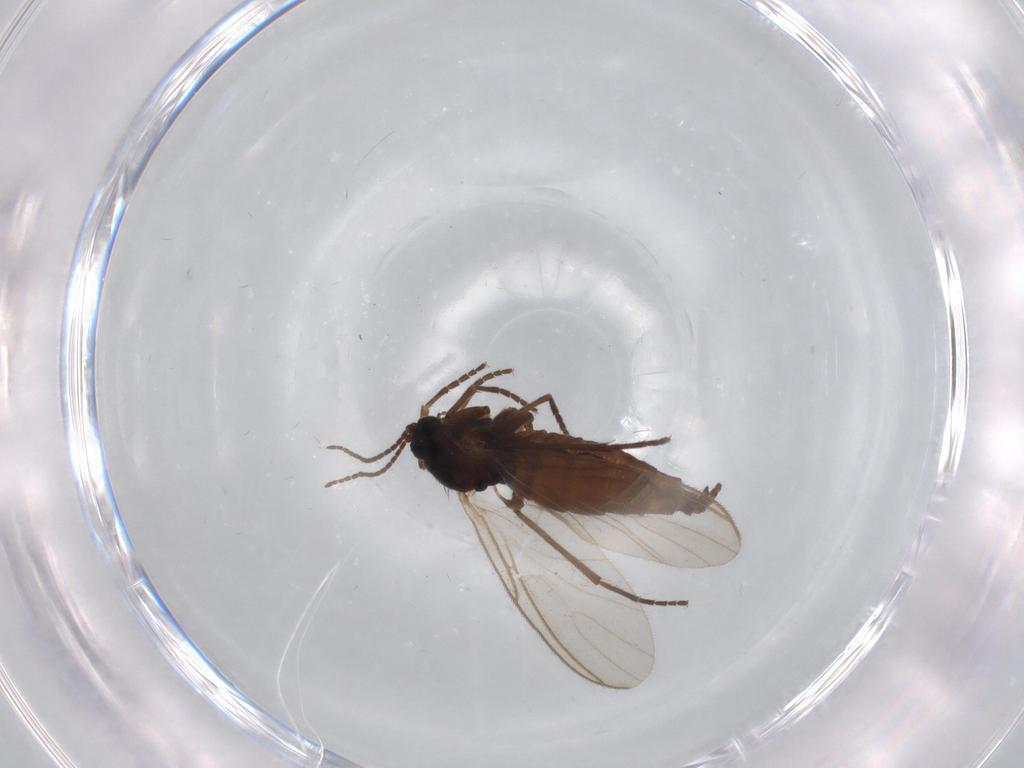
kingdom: Animalia
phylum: Arthropoda
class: Insecta
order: Diptera
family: Sciaridae
